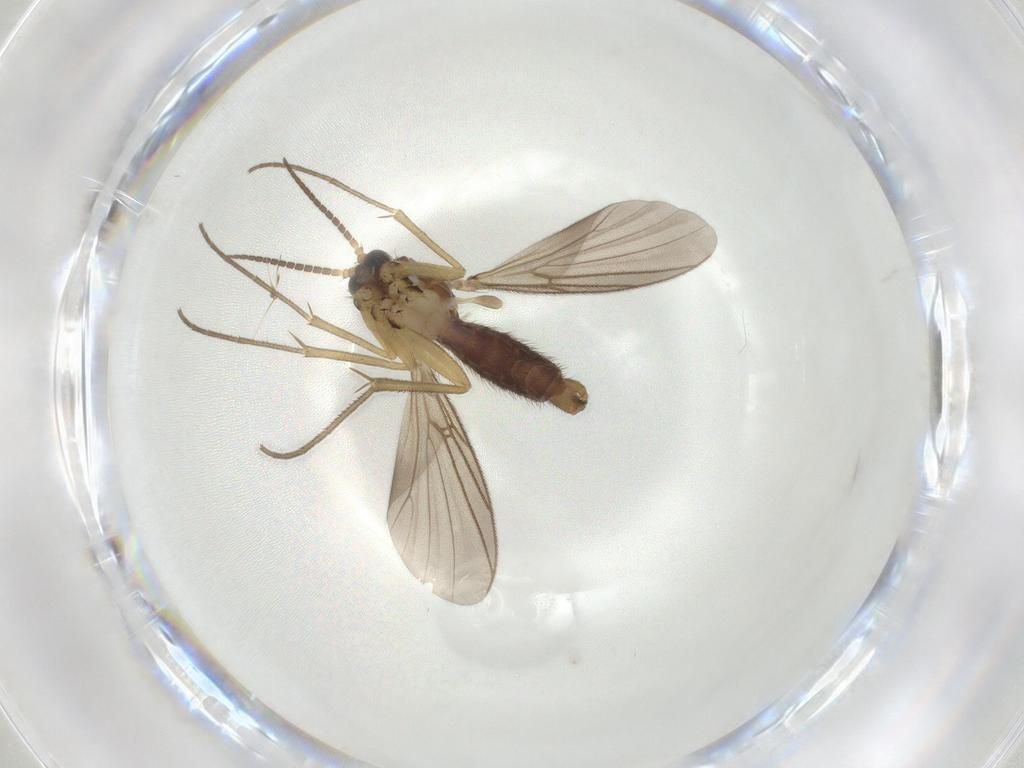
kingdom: Animalia
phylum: Arthropoda
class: Insecta
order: Diptera
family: Mycetophilidae
